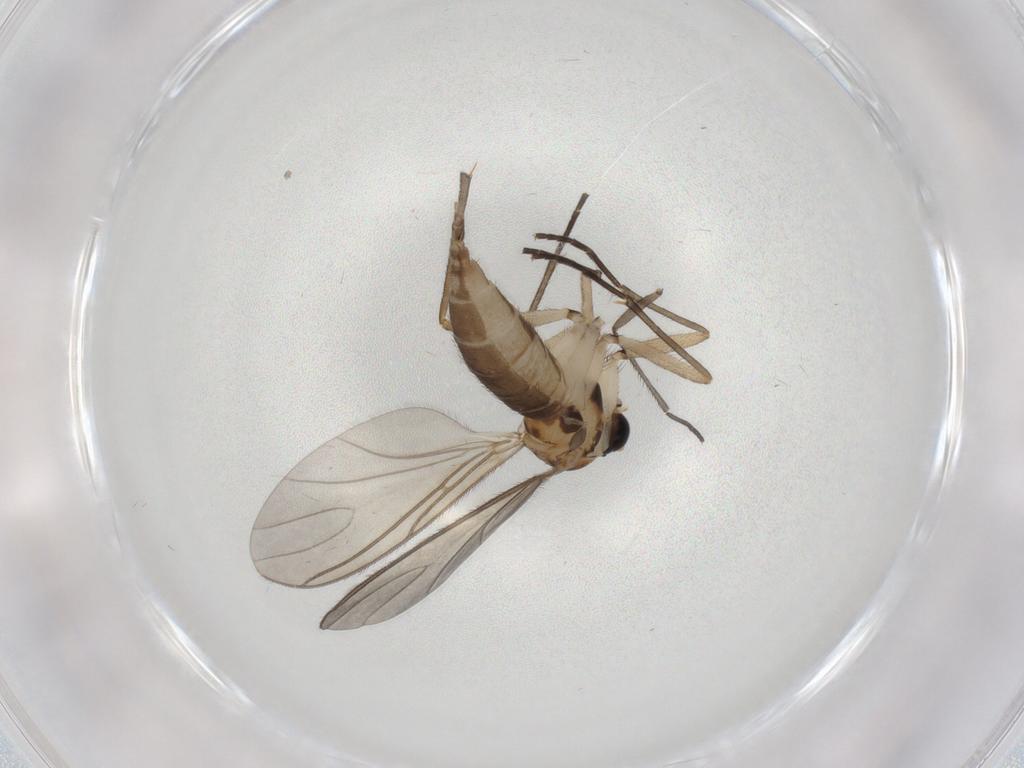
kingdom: Animalia
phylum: Arthropoda
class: Insecta
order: Diptera
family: Sciaridae
